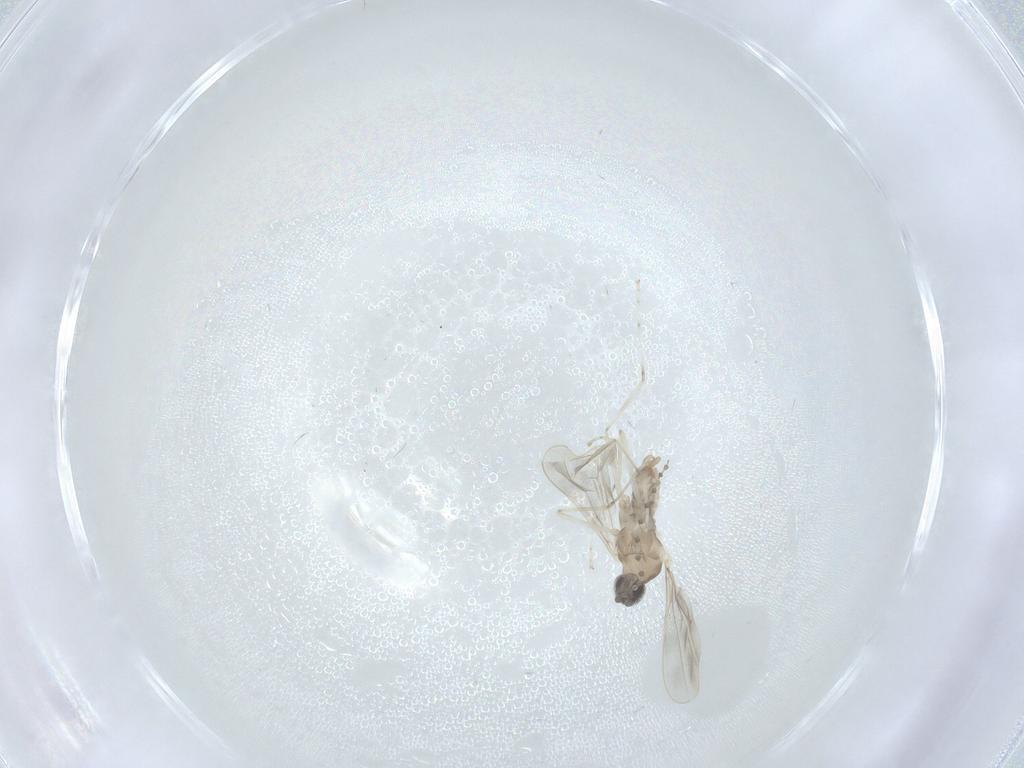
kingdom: Animalia
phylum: Arthropoda
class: Insecta
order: Diptera
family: Cecidomyiidae
